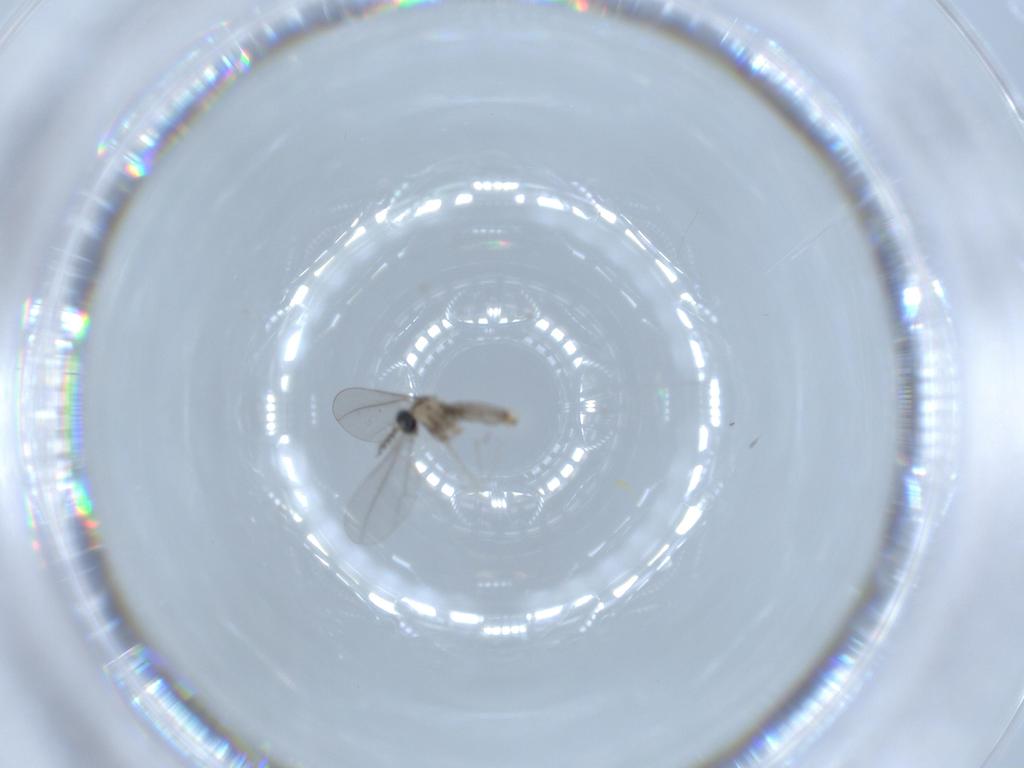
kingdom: Animalia
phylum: Arthropoda
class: Insecta
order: Diptera
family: Cecidomyiidae
